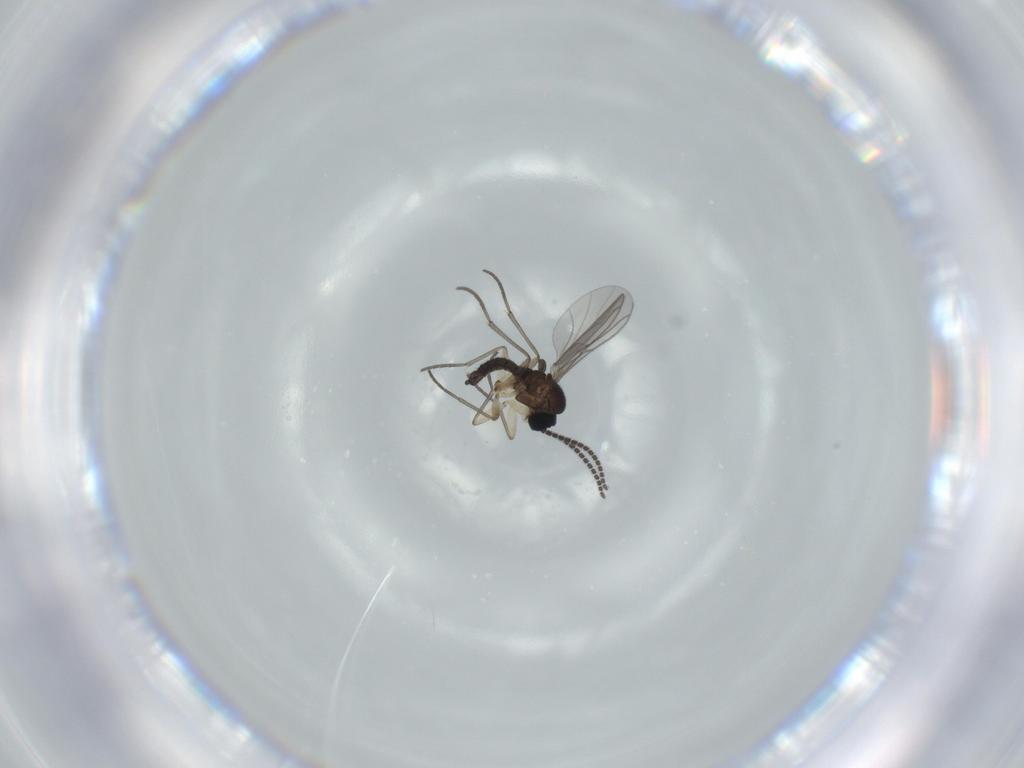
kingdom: Animalia
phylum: Arthropoda
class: Insecta
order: Diptera
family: Sciaridae
